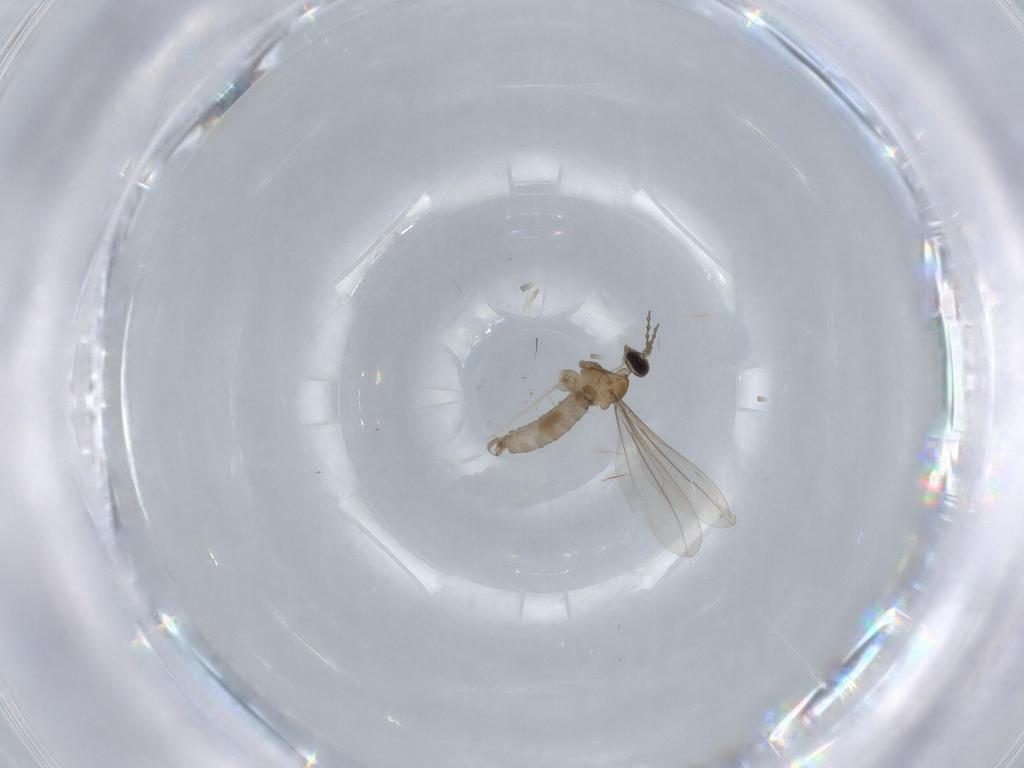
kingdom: Animalia
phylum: Arthropoda
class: Insecta
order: Diptera
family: Cecidomyiidae
